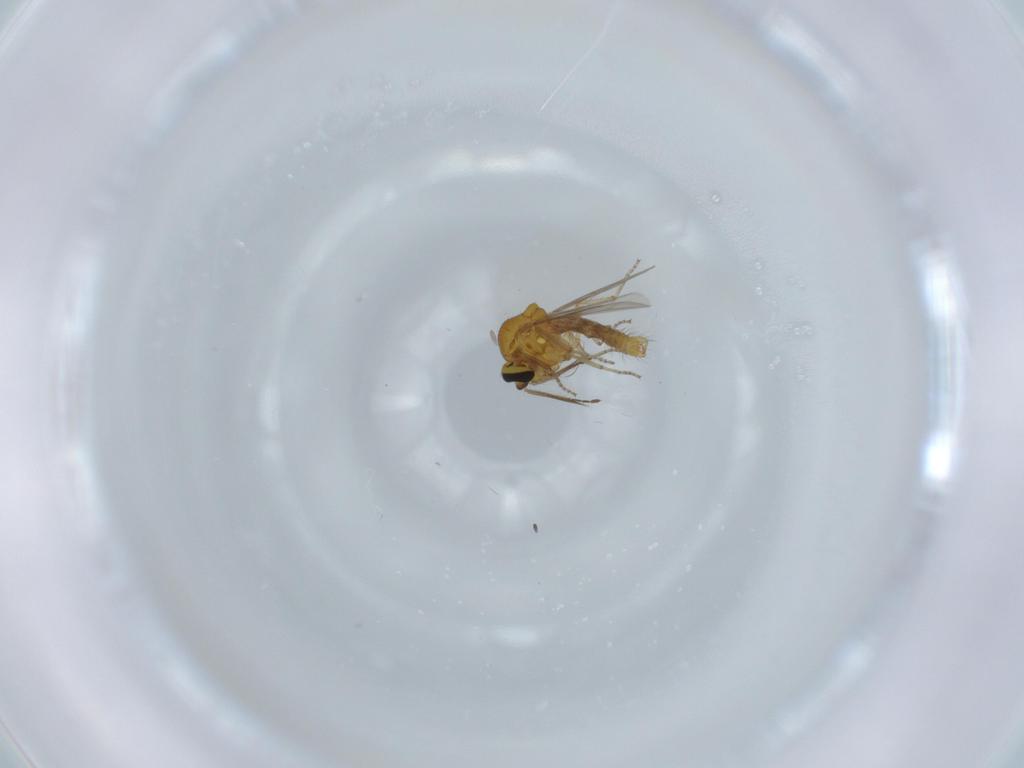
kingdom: Animalia
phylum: Arthropoda
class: Insecta
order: Diptera
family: Ceratopogonidae
